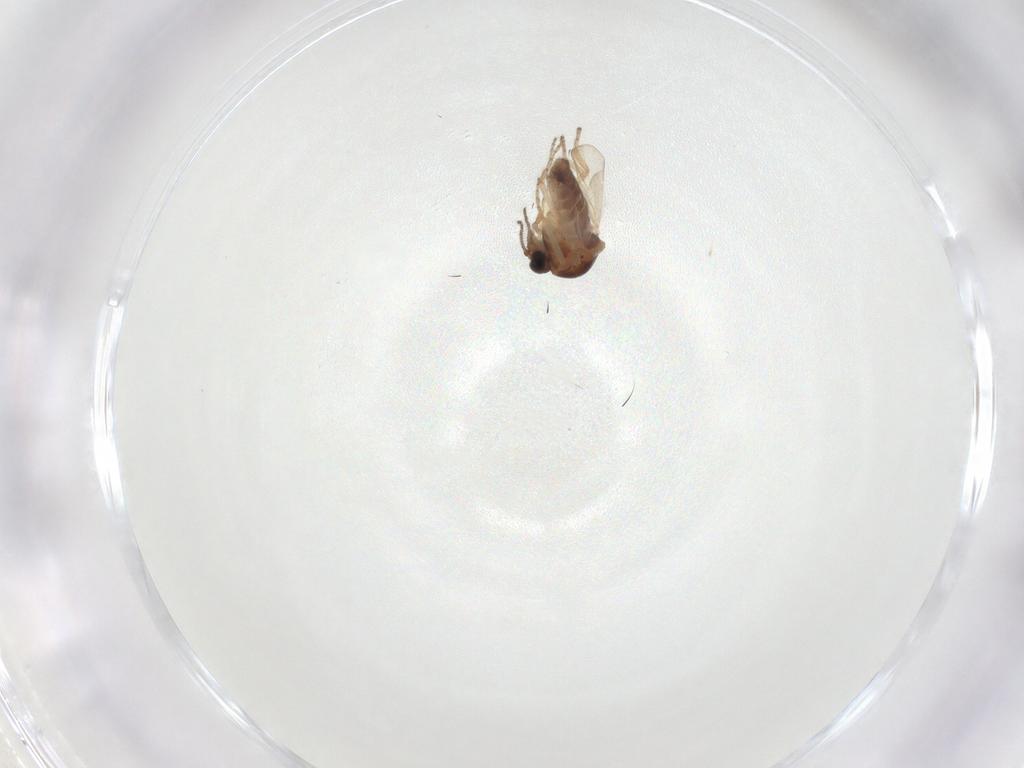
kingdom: Animalia
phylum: Arthropoda
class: Insecta
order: Diptera
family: Ceratopogonidae
